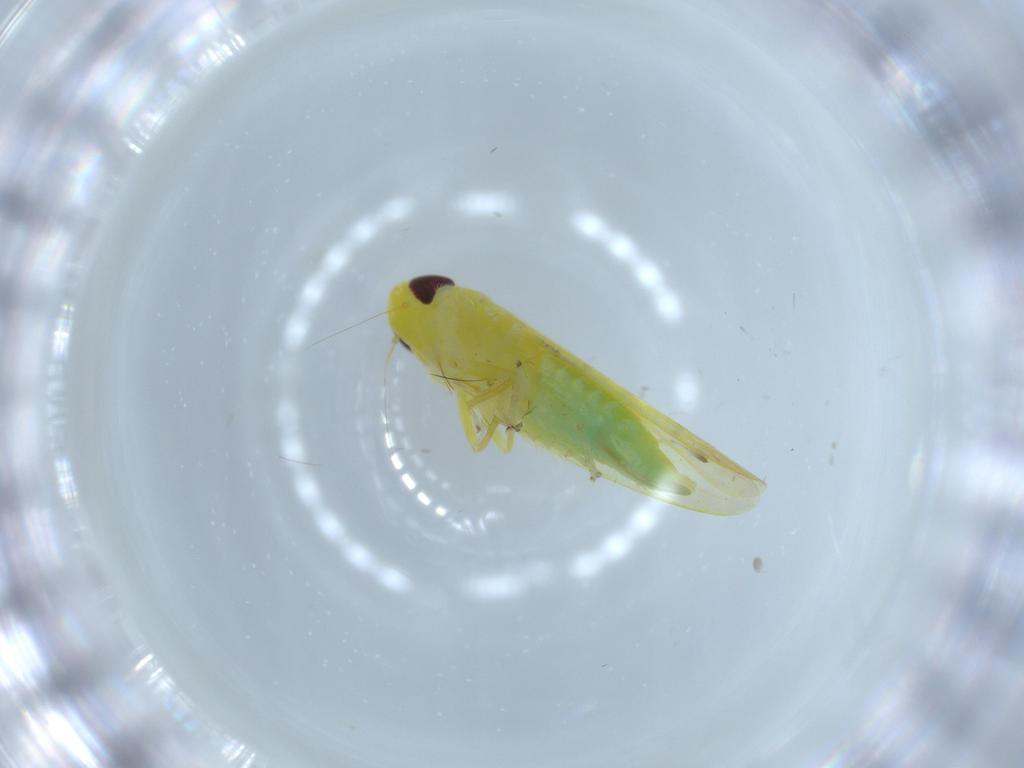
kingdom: Animalia
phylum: Arthropoda
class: Insecta
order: Hemiptera
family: Cicadellidae
